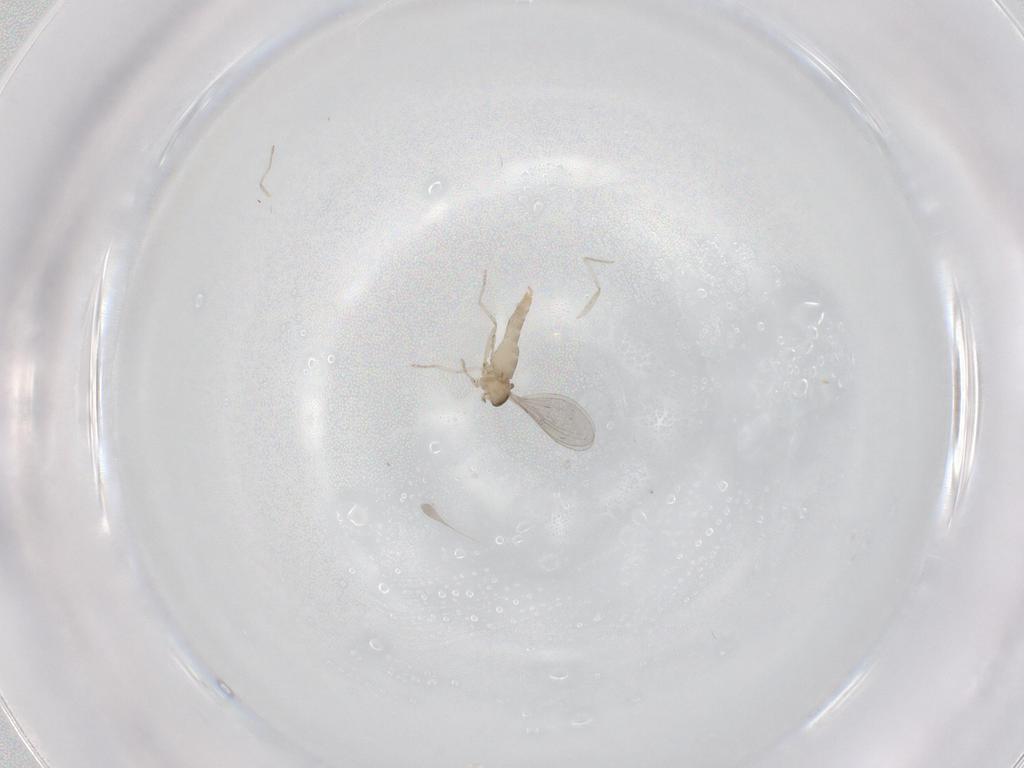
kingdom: Animalia
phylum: Arthropoda
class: Insecta
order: Diptera
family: Cecidomyiidae
